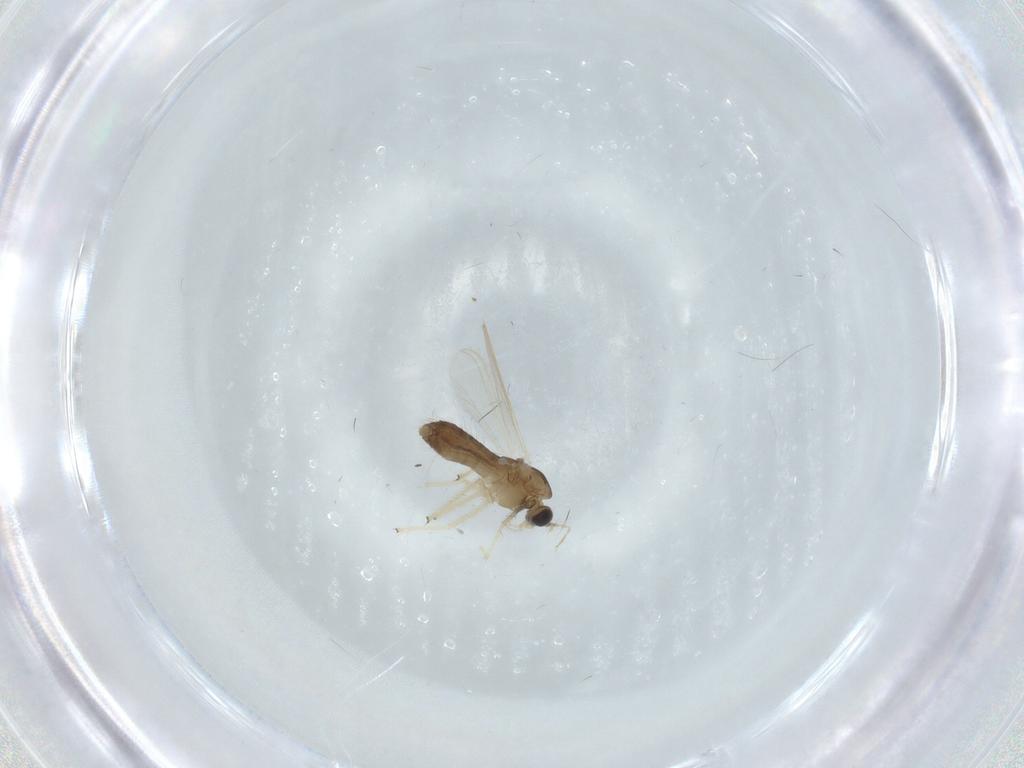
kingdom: Animalia
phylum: Arthropoda
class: Insecta
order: Diptera
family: Chironomidae
